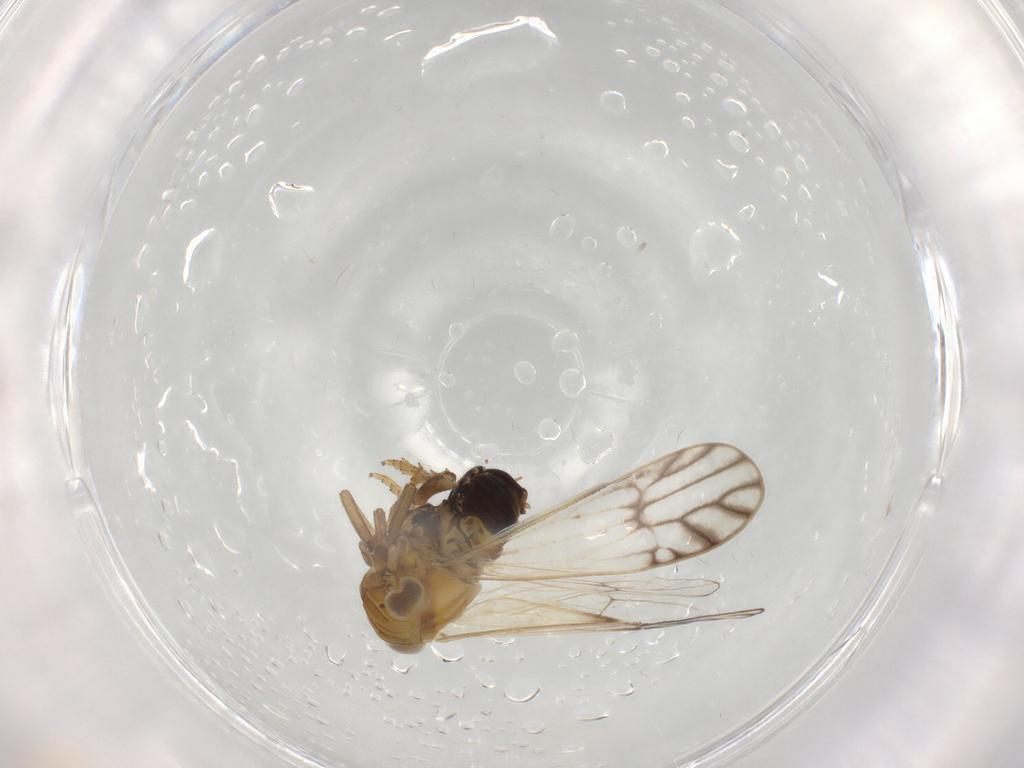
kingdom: Animalia
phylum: Arthropoda
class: Insecta
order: Hemiptera
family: Delphacidae
